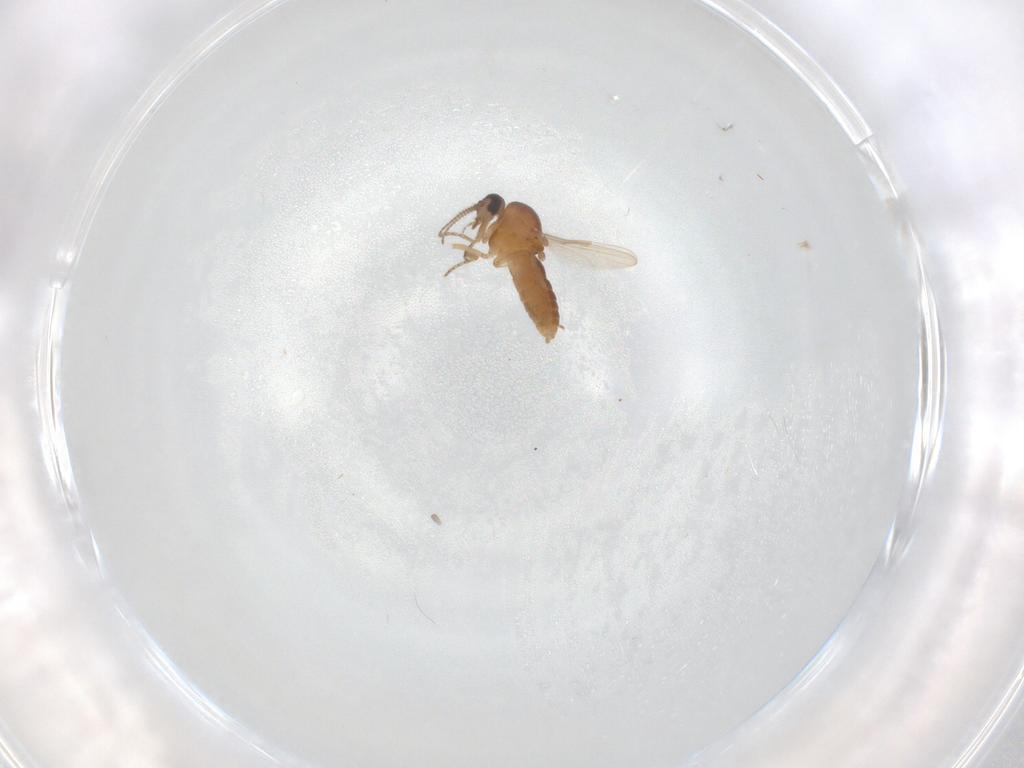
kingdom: Animalia
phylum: Arthropoda
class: Insecta
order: Diptera
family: Ceratopogonidae
